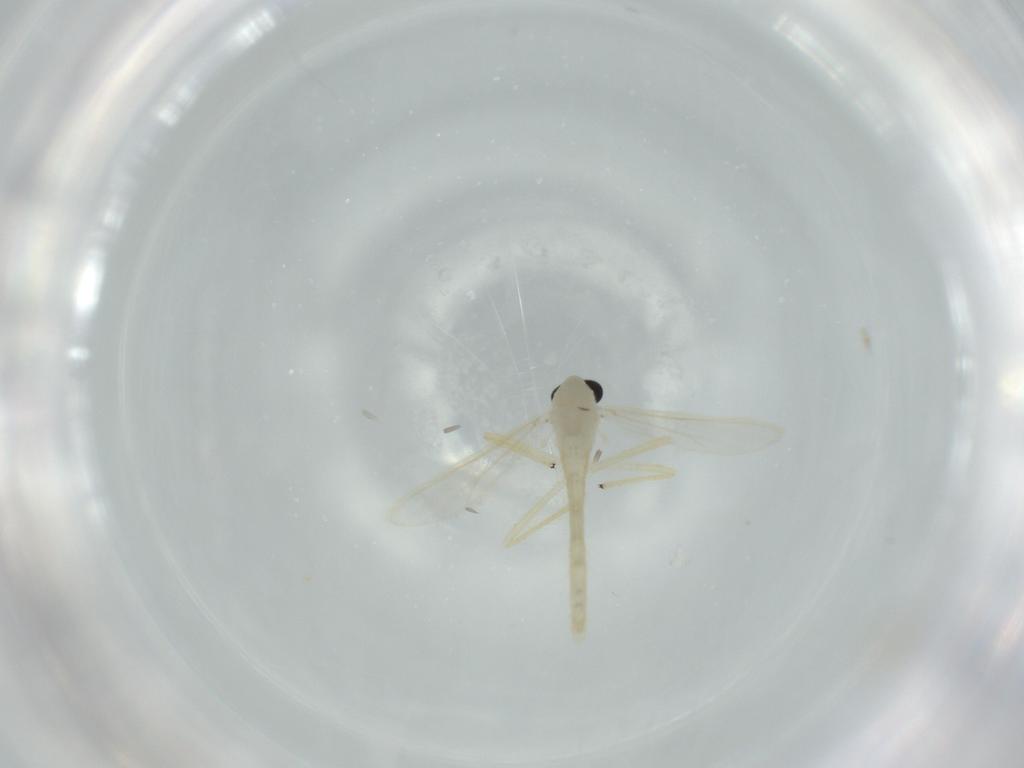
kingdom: Animalia
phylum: Arthropoda
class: Insecta
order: Diptera
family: Chironomidae
